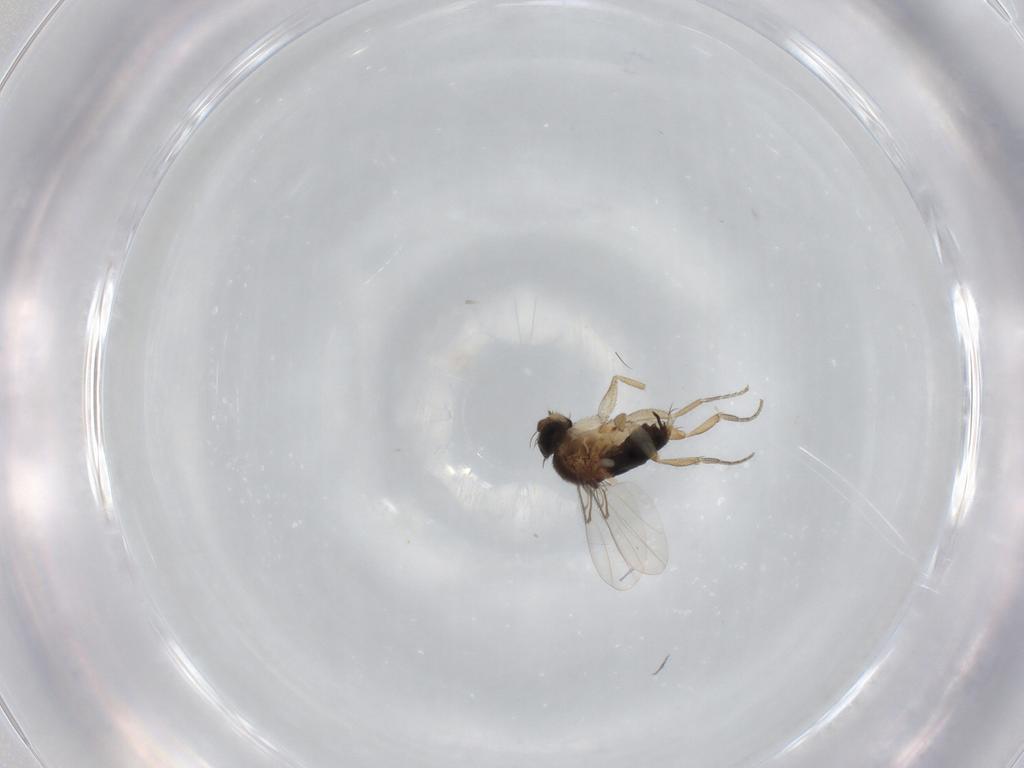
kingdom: Animalia
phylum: Arthropoda
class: Insecta
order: Diptera
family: Phoridae
